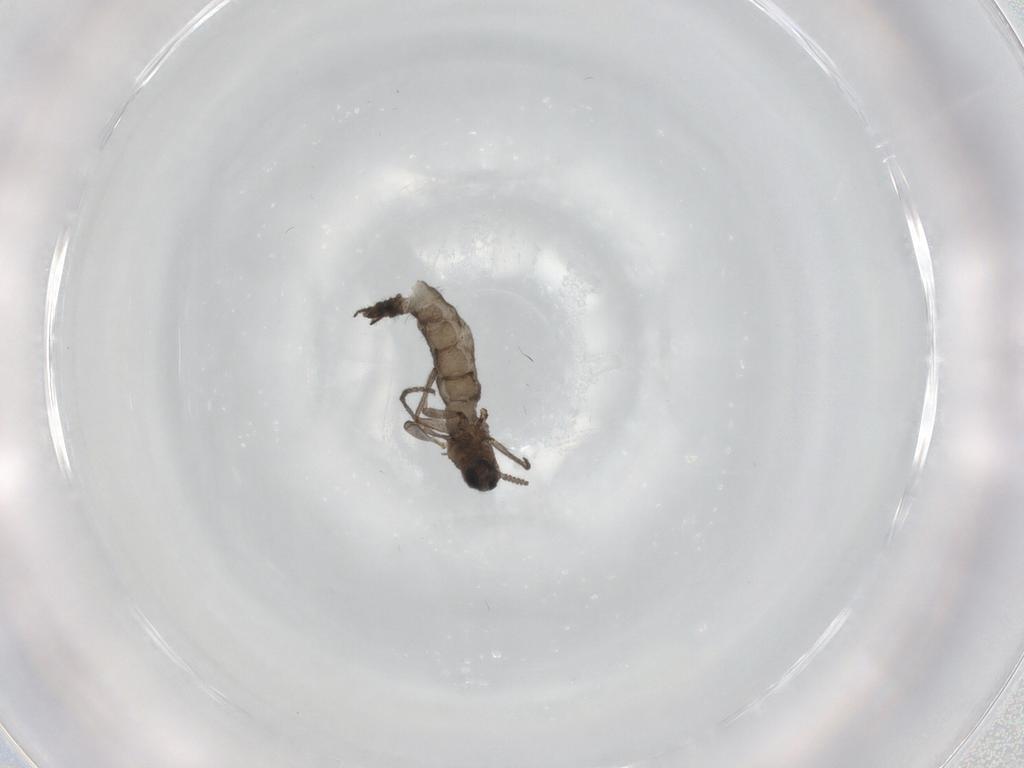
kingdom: Animalia
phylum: Arthropoda
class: Insecta
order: Diptera
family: Sciaridae
